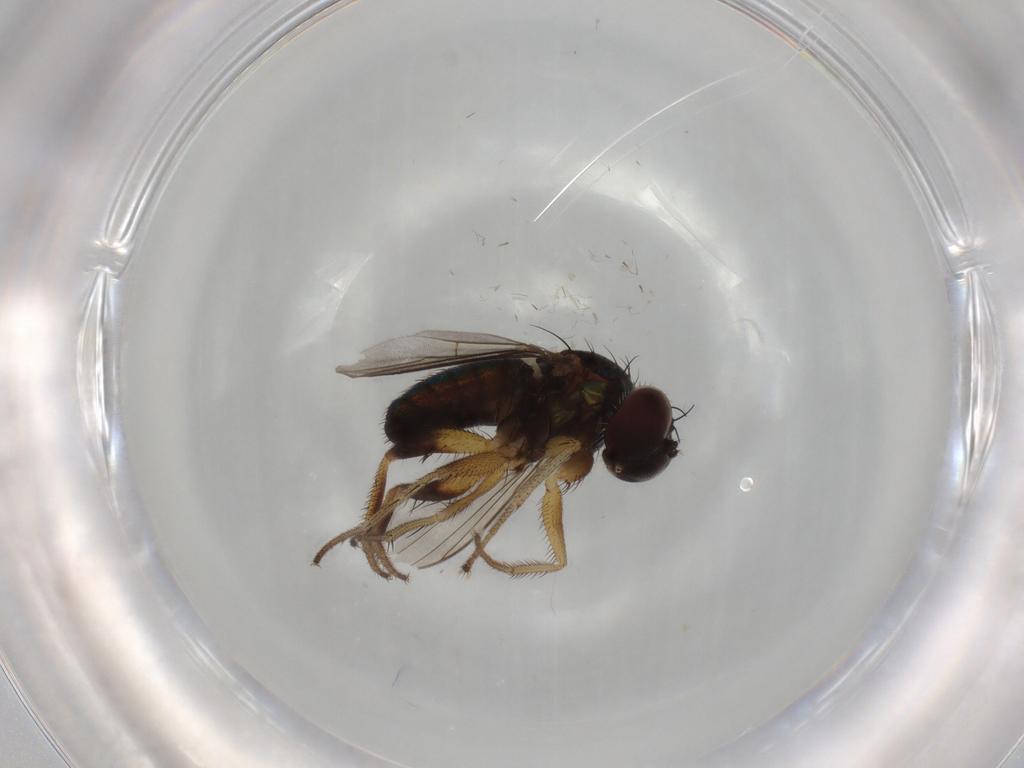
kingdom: Animalia
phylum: Arthropoda
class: Insecta
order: Diptera
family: Dolichopodidae
